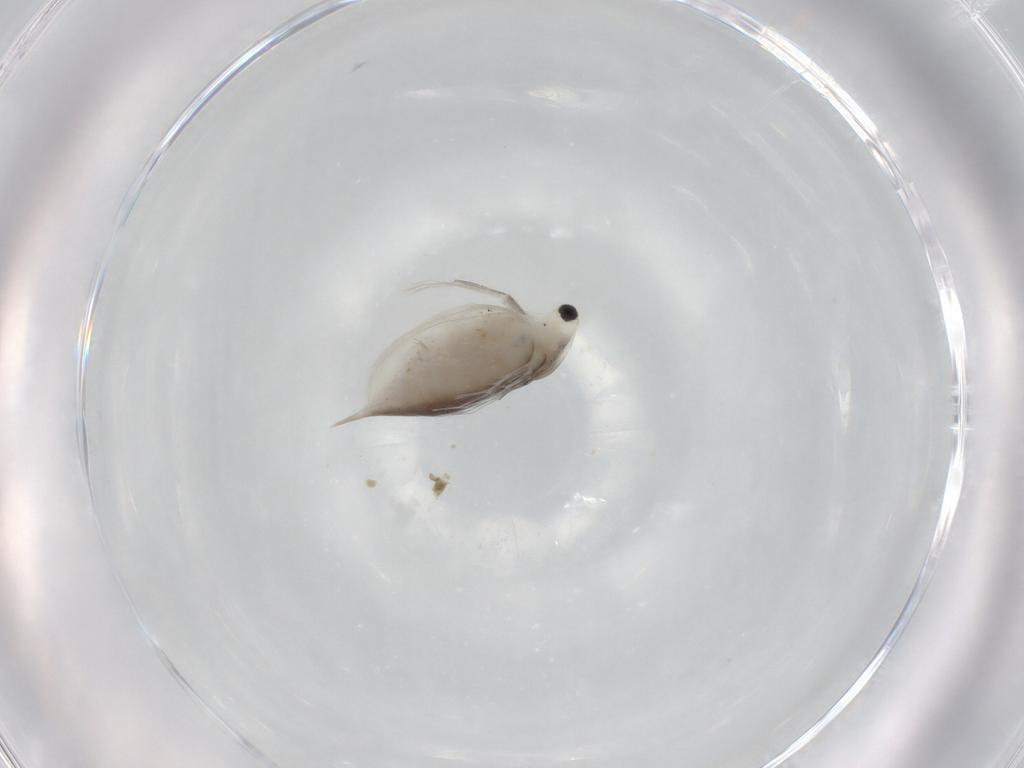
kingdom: Animalia
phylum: Arthropoda
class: Branchiopoda
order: Diplostraca
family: Daphniidae
